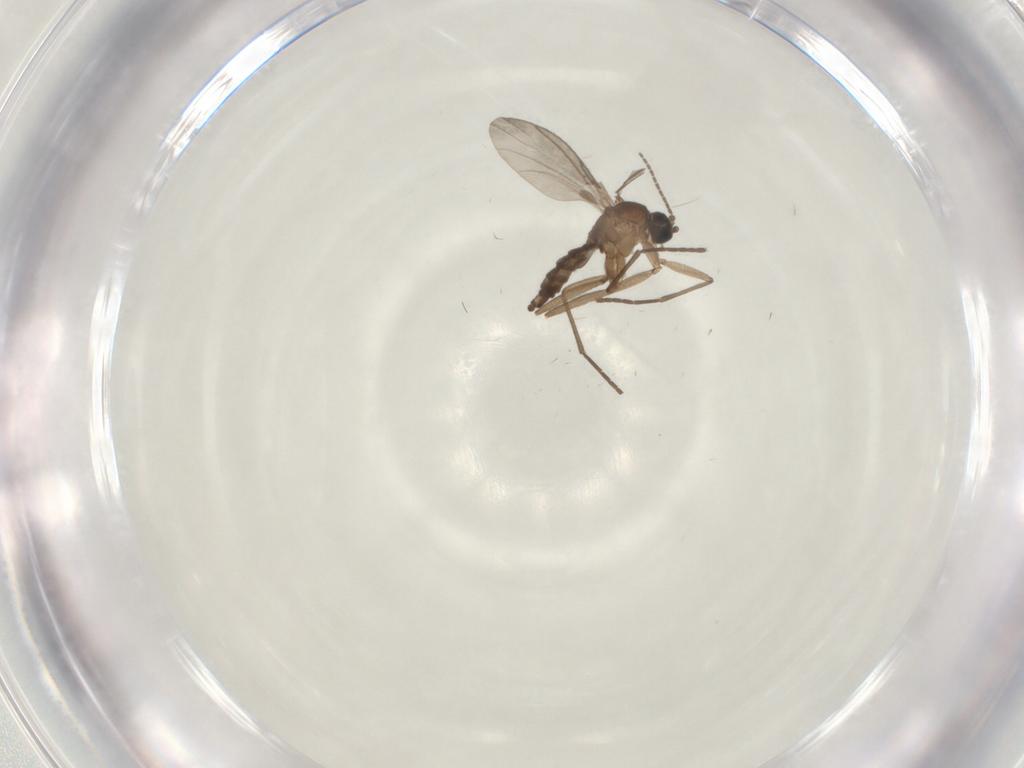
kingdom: Animalia
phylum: Arthropoda
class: Insecta
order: Diptera
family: Sciaridae
